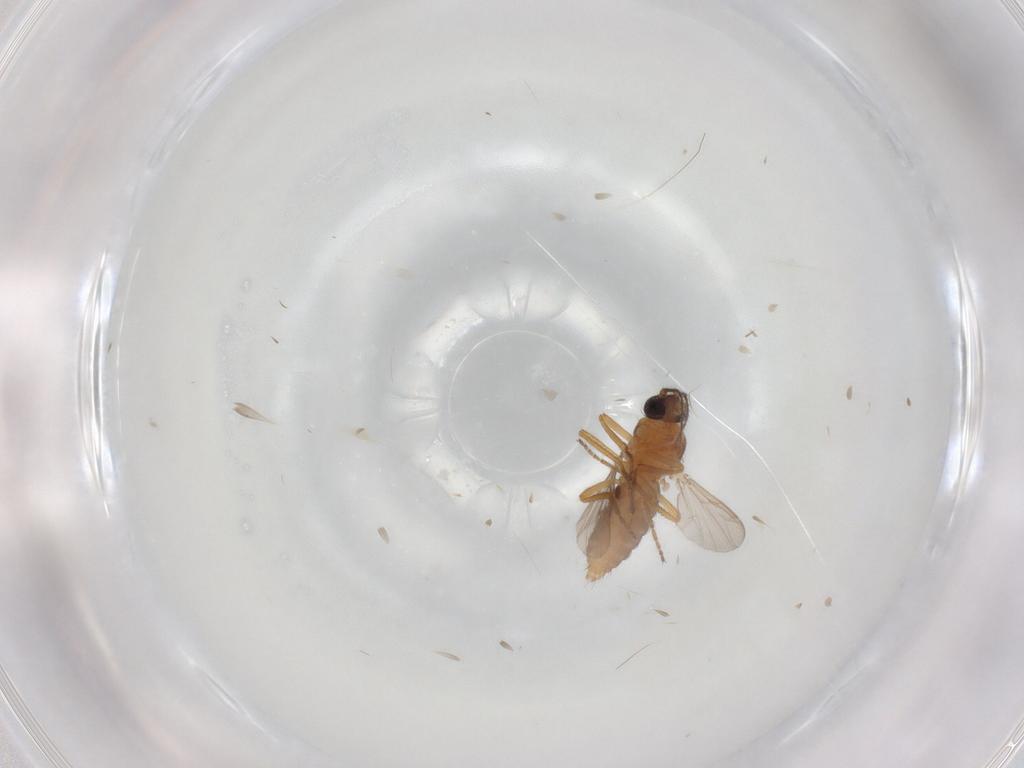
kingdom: Animalia
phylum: Arthropoda
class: Insecta
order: Diptera
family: Ceratopogonidae
